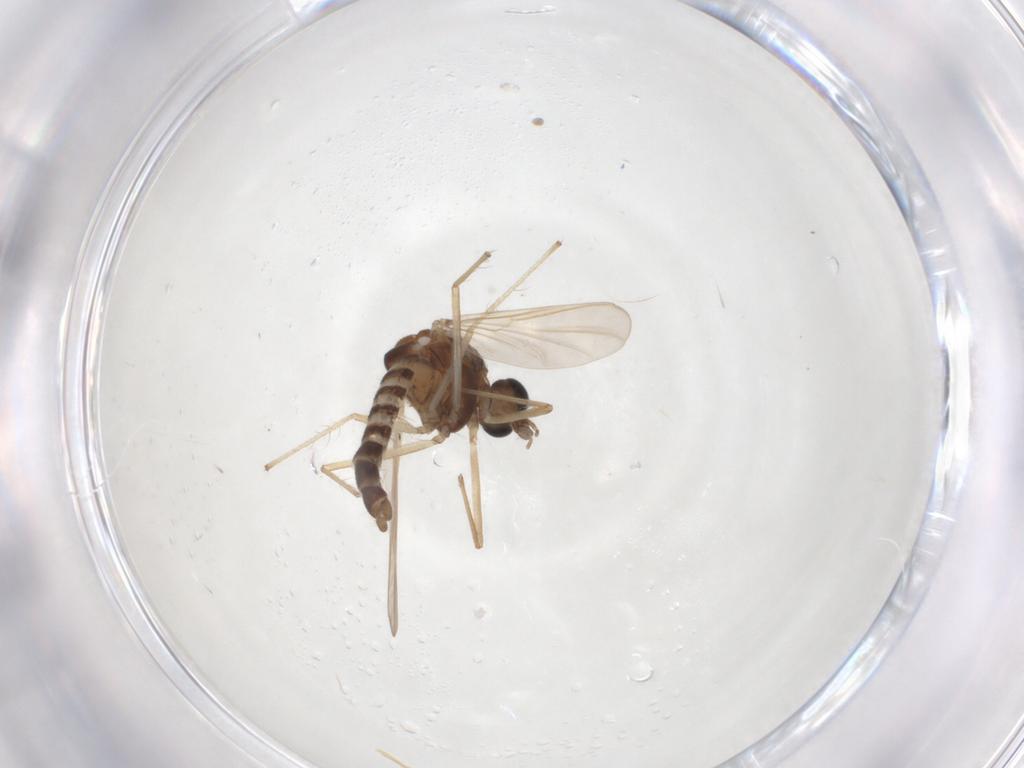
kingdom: Animalia
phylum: Arthropoda
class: Insecta
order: Diptera
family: Chironomidae
